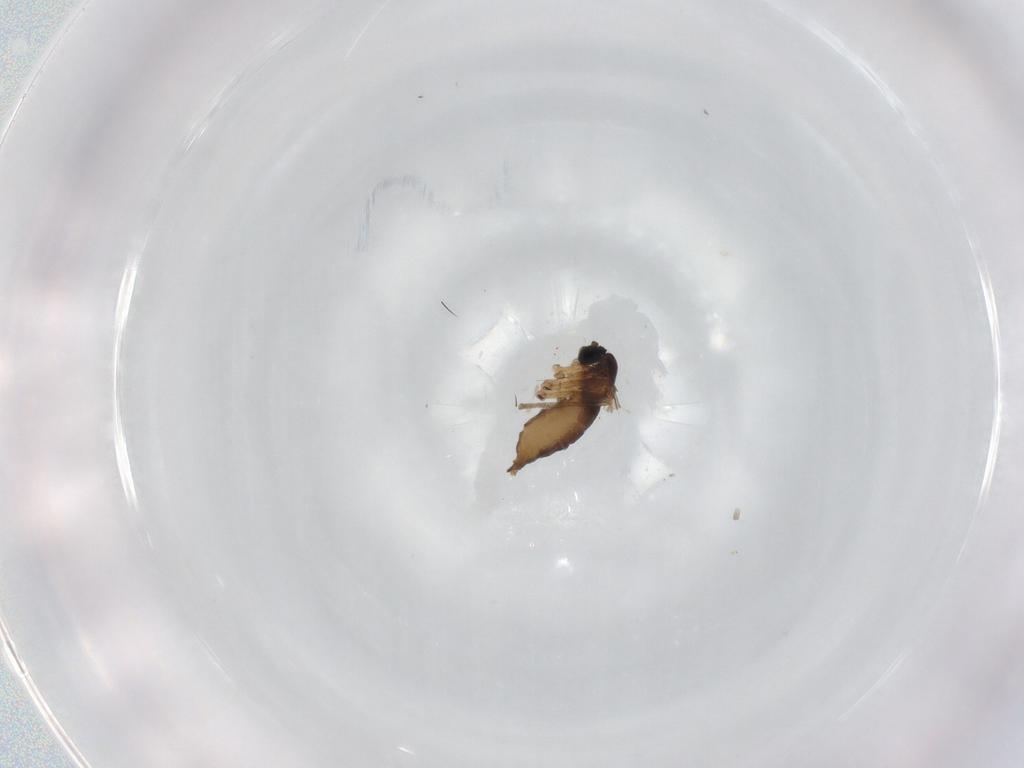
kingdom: Animalia
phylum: Arthropoda
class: Insecta
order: Diptera
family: Sciaridae
